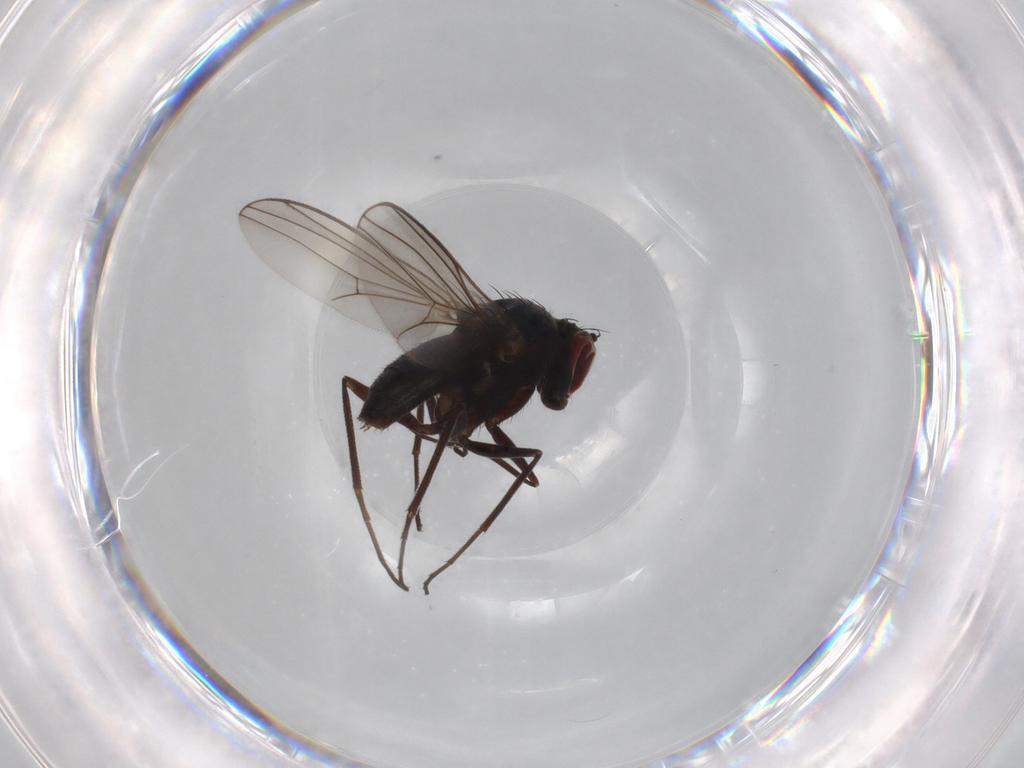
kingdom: Animalia
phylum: Arthropoda
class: Insecta
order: Diptera
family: Dolichopodidae
